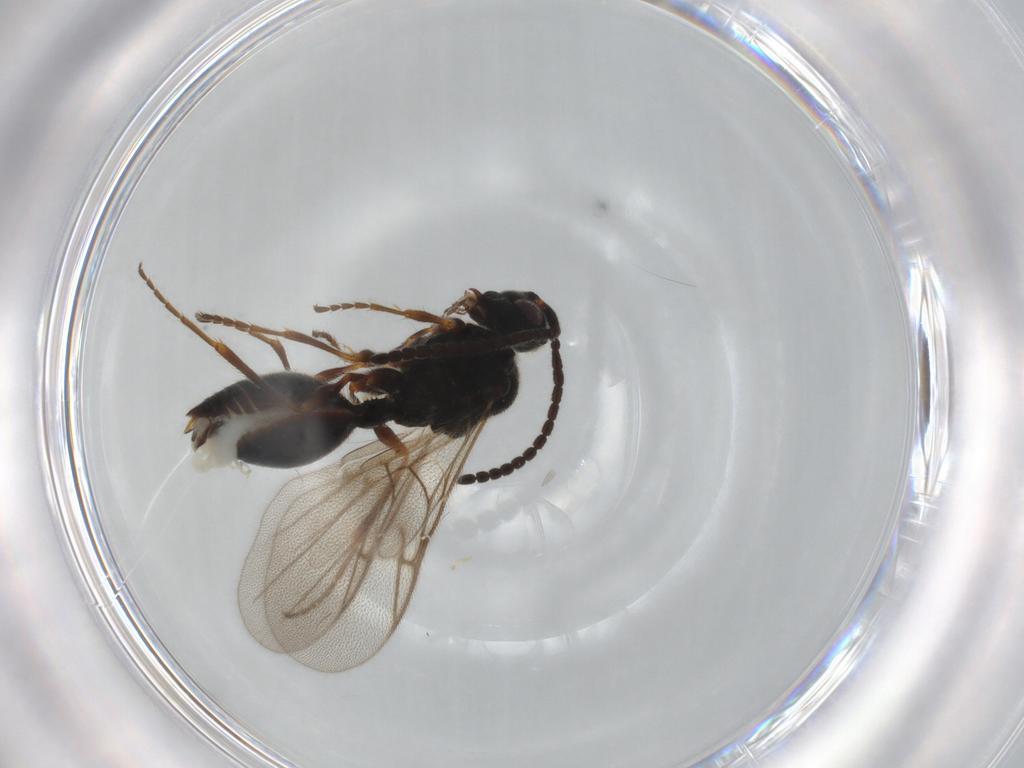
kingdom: Animalia
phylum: Arthropoda
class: Insecta
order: Hymenoptera
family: Diapriidae
